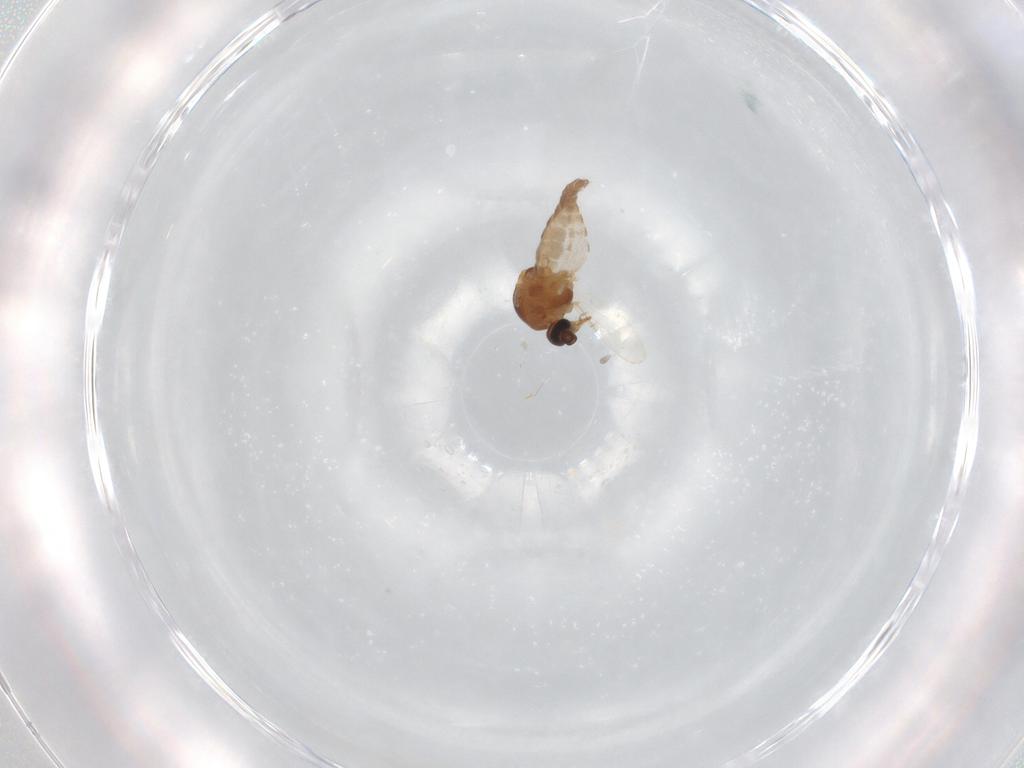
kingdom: Animalia
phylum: Arthropoda
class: Insecta
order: Diptera
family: Ceratopogonidae
